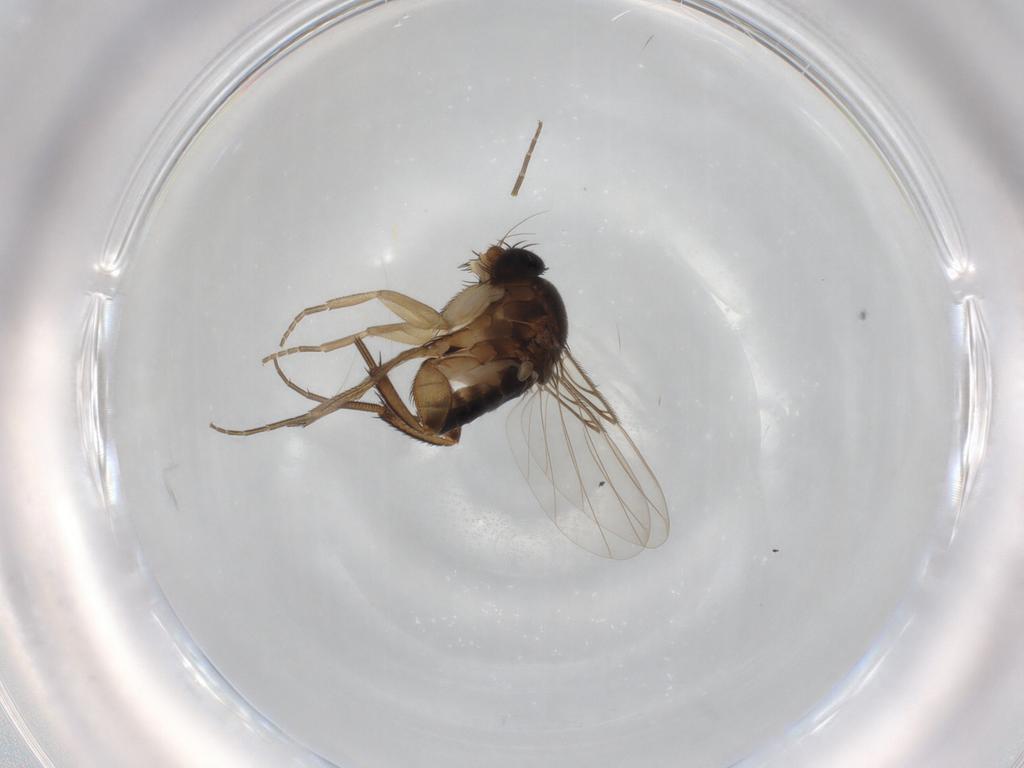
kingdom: Animalia
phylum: Arthropoda
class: Insecta
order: Diptera
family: Phoridae
